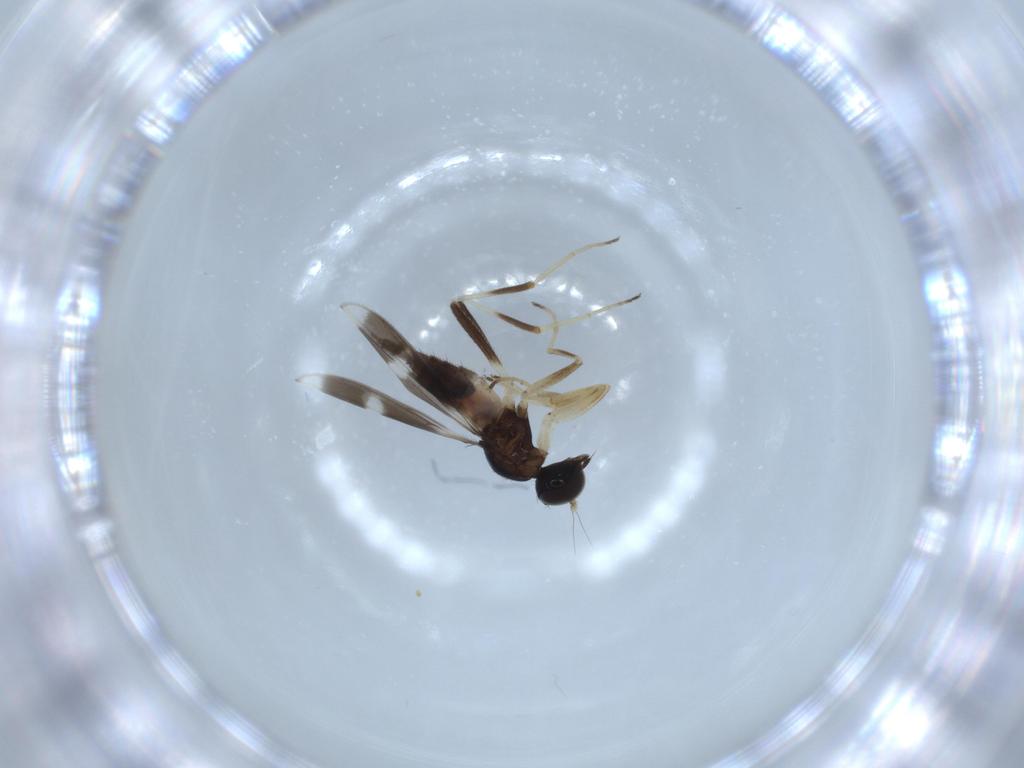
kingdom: Animalia
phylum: Arthropoda
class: Insecta
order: Diptera
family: Hybotidae
